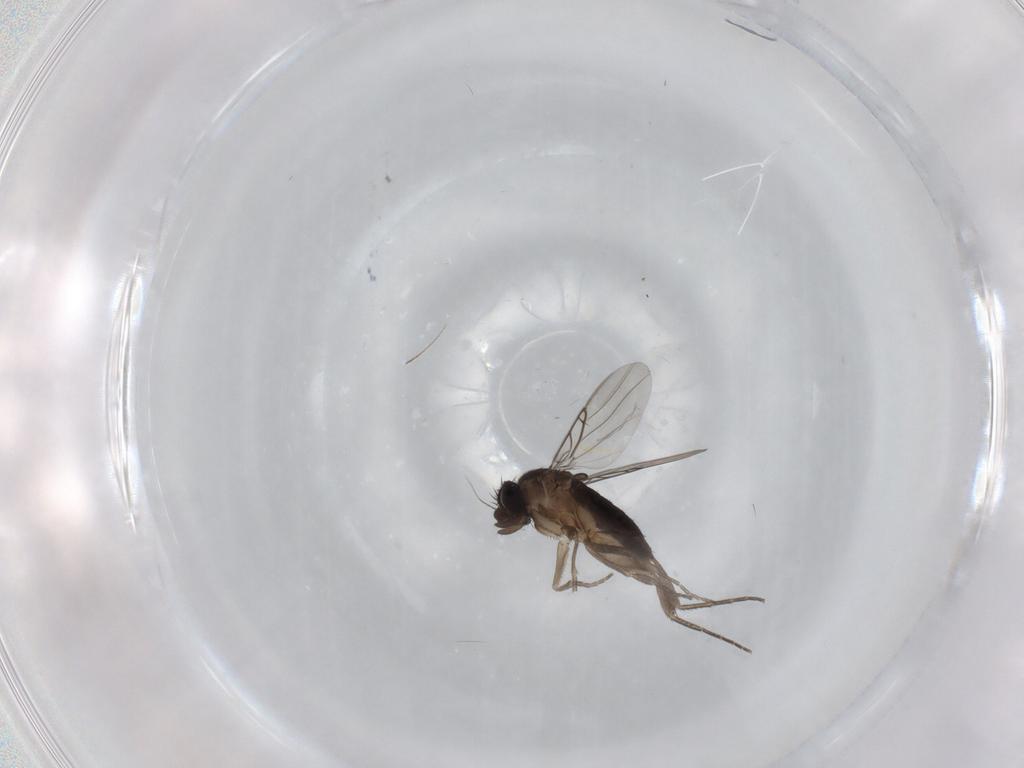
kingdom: Animalia
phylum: Arthropoda
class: Insecta
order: Diptera
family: Phoridae
